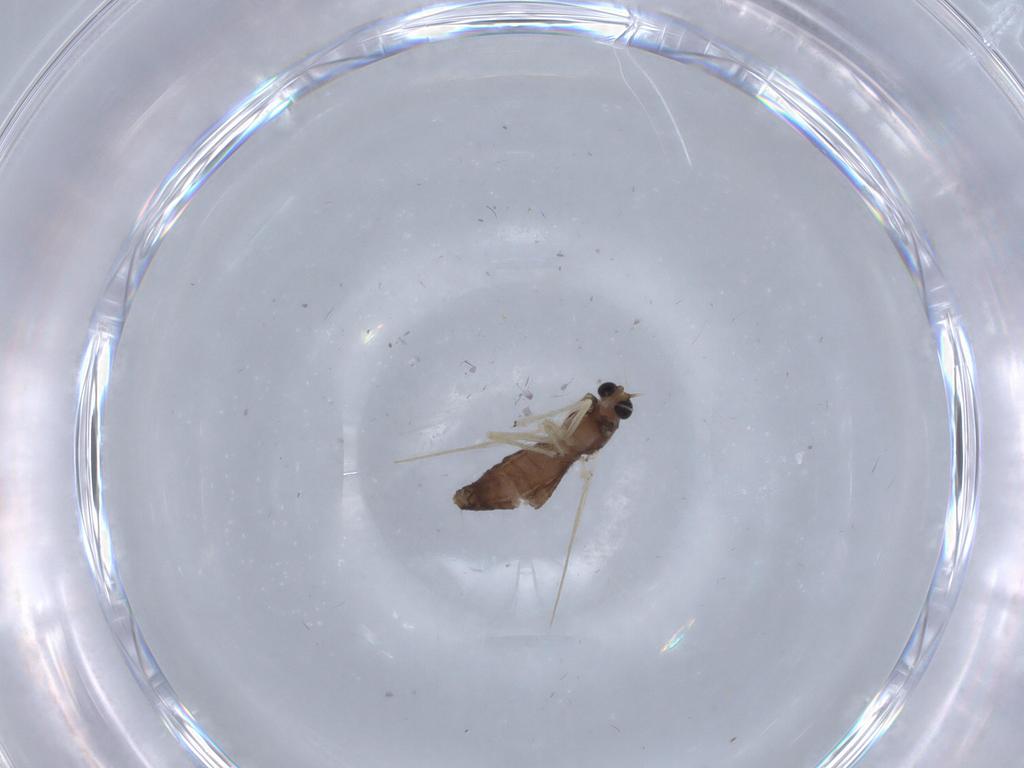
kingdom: Animalia
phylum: Arthropoda
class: Insecta
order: Diptera
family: Chironomidae
